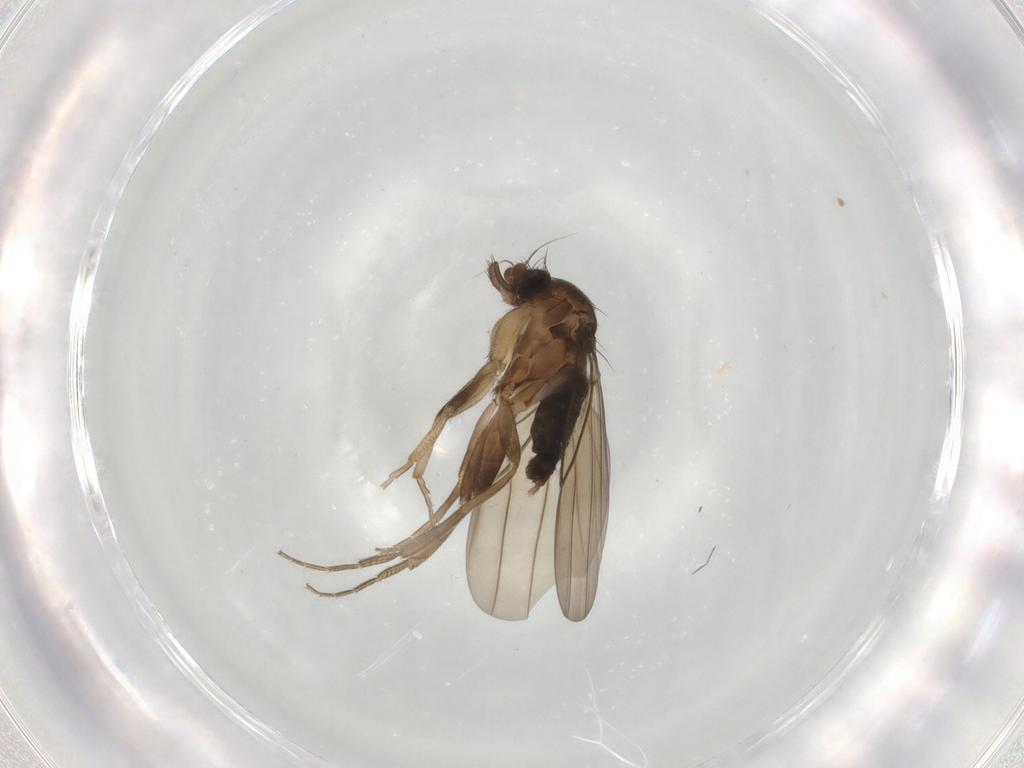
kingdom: Animalia
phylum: Arthropoda
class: Insecta
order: Diptera
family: Phoridae
